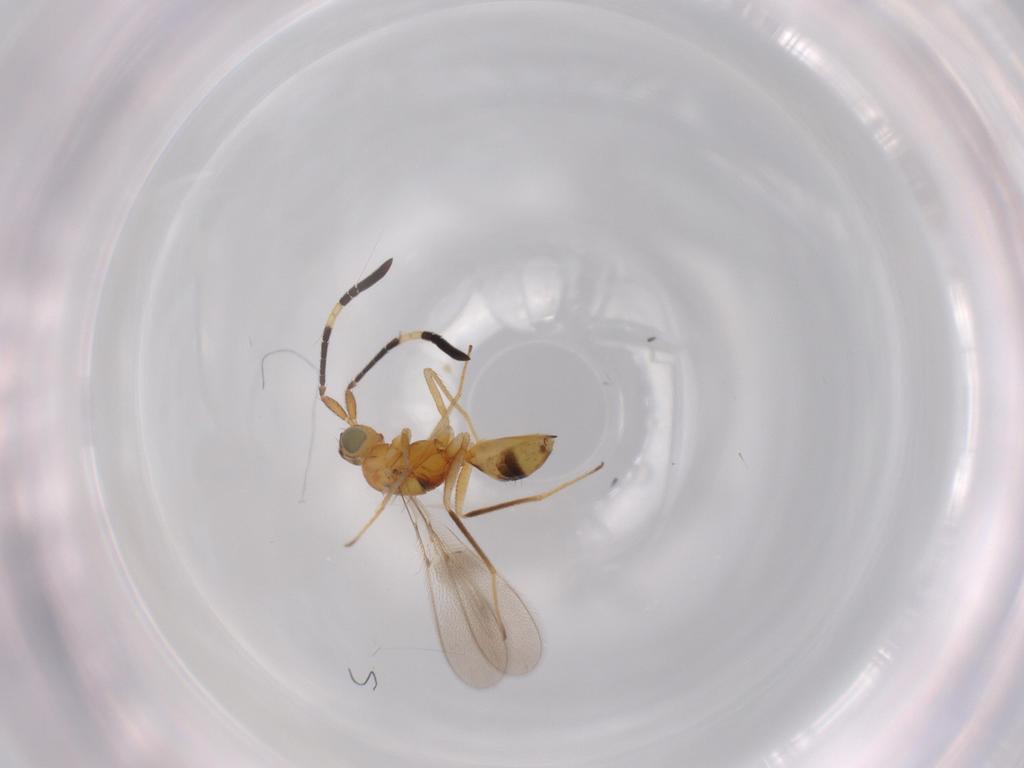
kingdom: Animalia
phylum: Arthropoda
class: Insecta
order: Hymenoptera
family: Mymaridae
